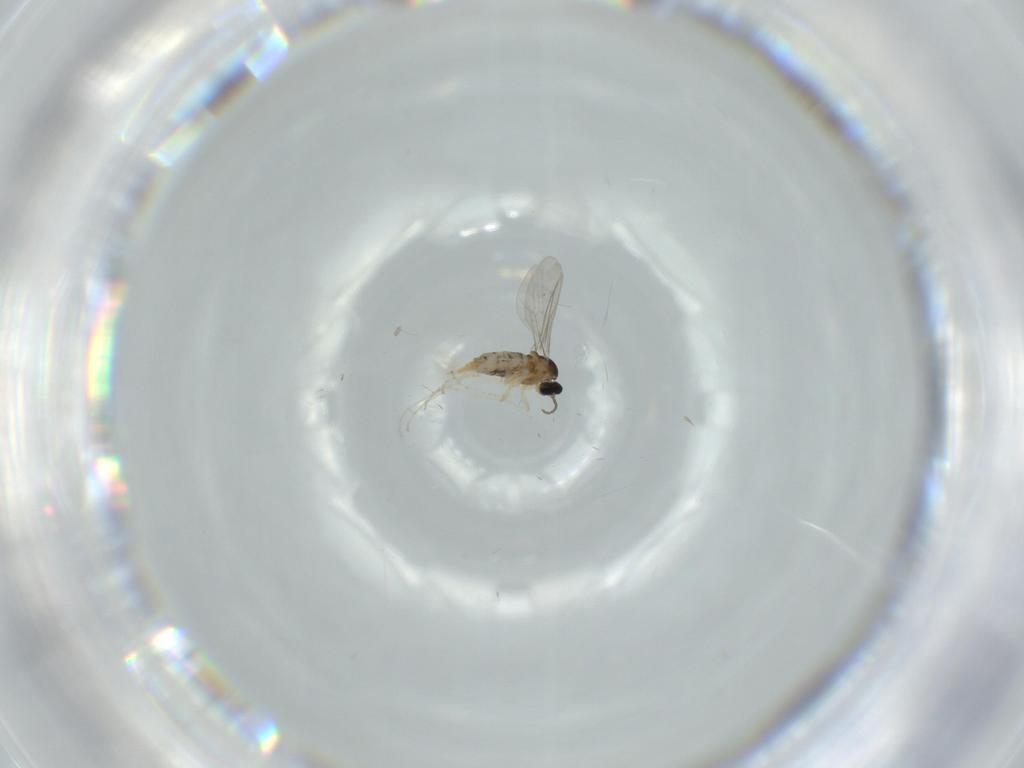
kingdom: Animalia
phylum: Arthropoda
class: Insecta
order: Diptera
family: Cecidomyiidae
